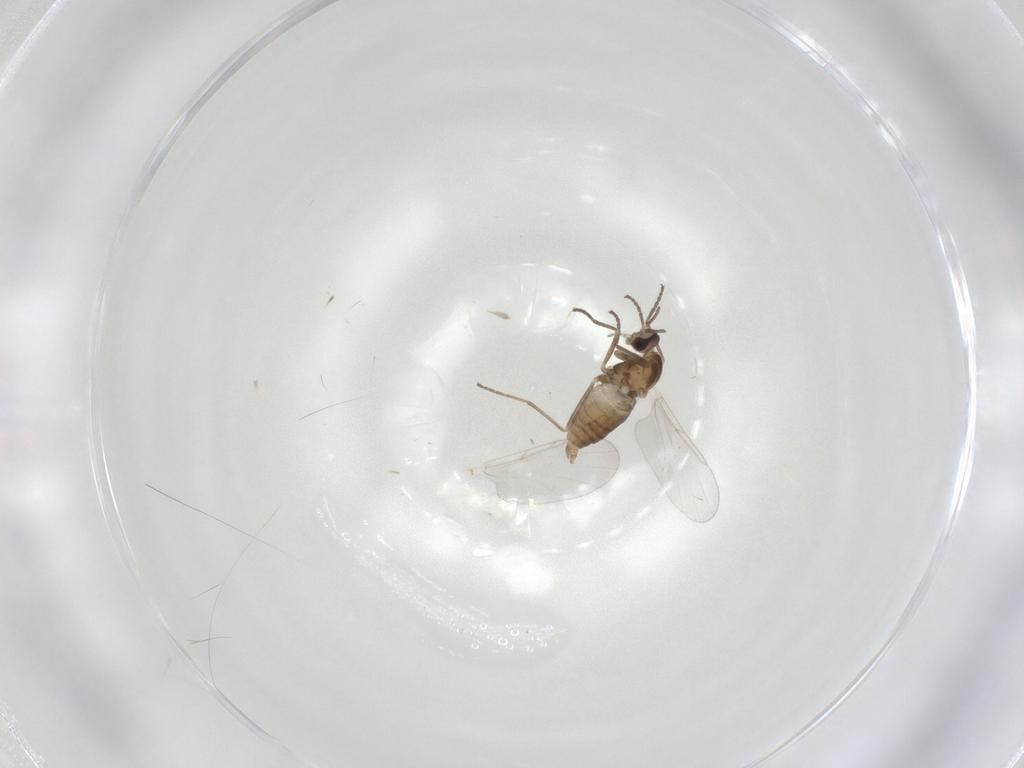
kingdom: Animalia
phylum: Arthropoda
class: Insecta
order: Diptera
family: Cecidomyiidae
